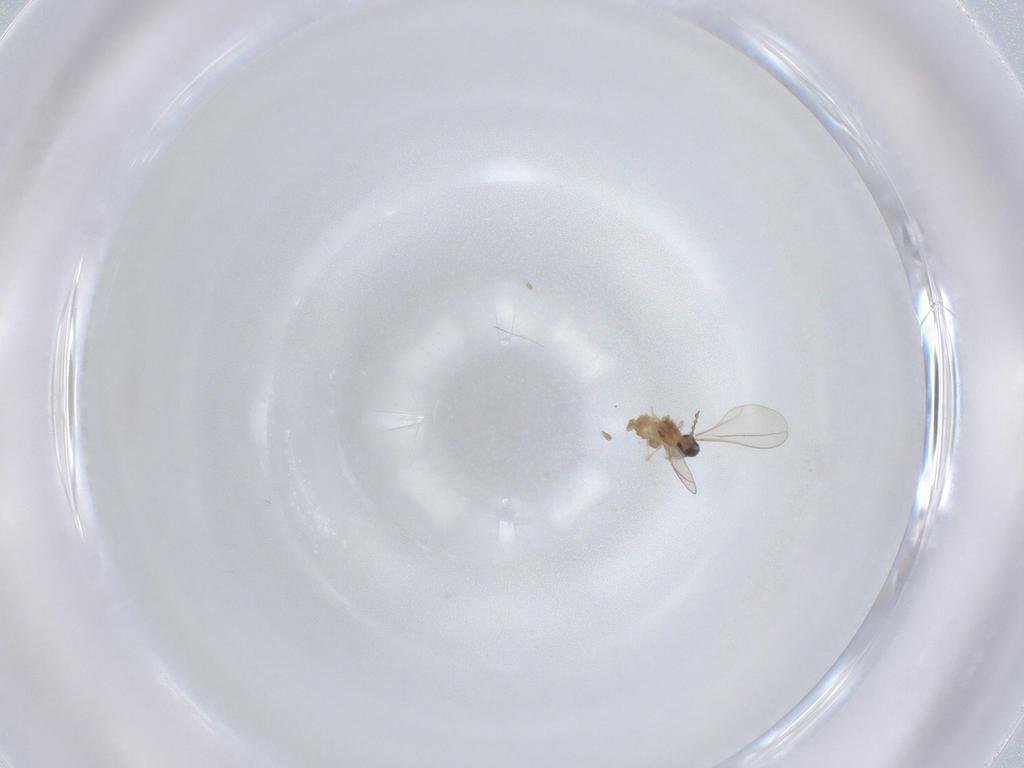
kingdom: Animalia
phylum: Arthropoda
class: Insecta
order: Diptera
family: Cecidomyiidae
